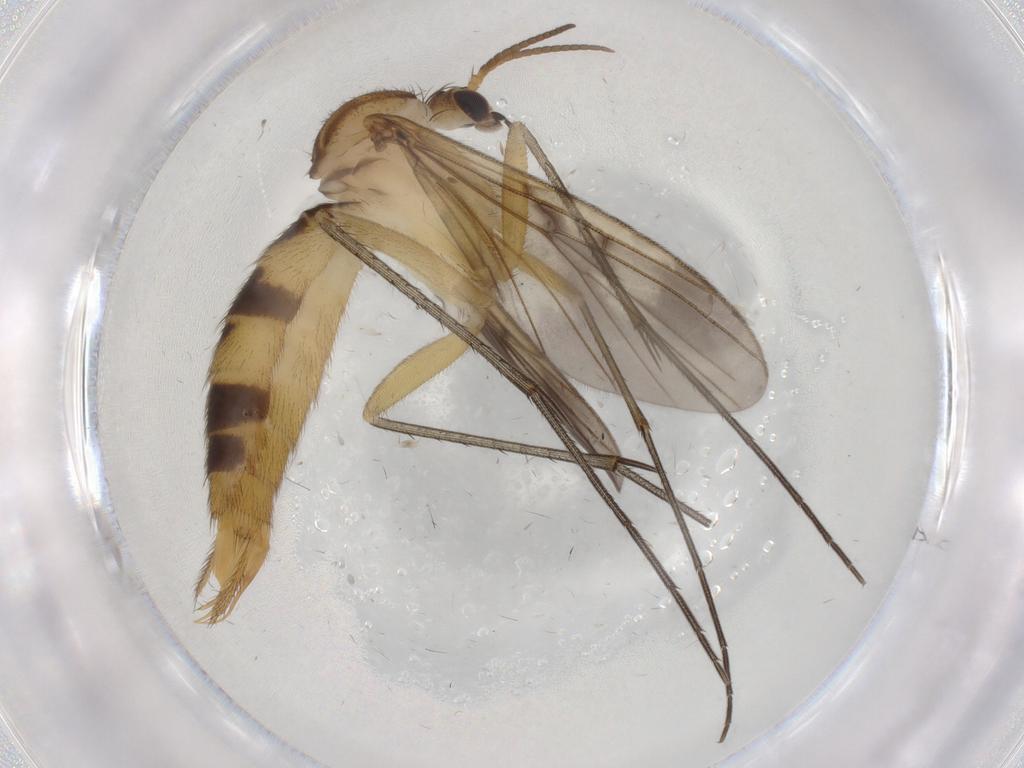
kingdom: Animalia
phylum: Arthropoda
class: Insecta
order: Diptera
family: Mycetophilidae
